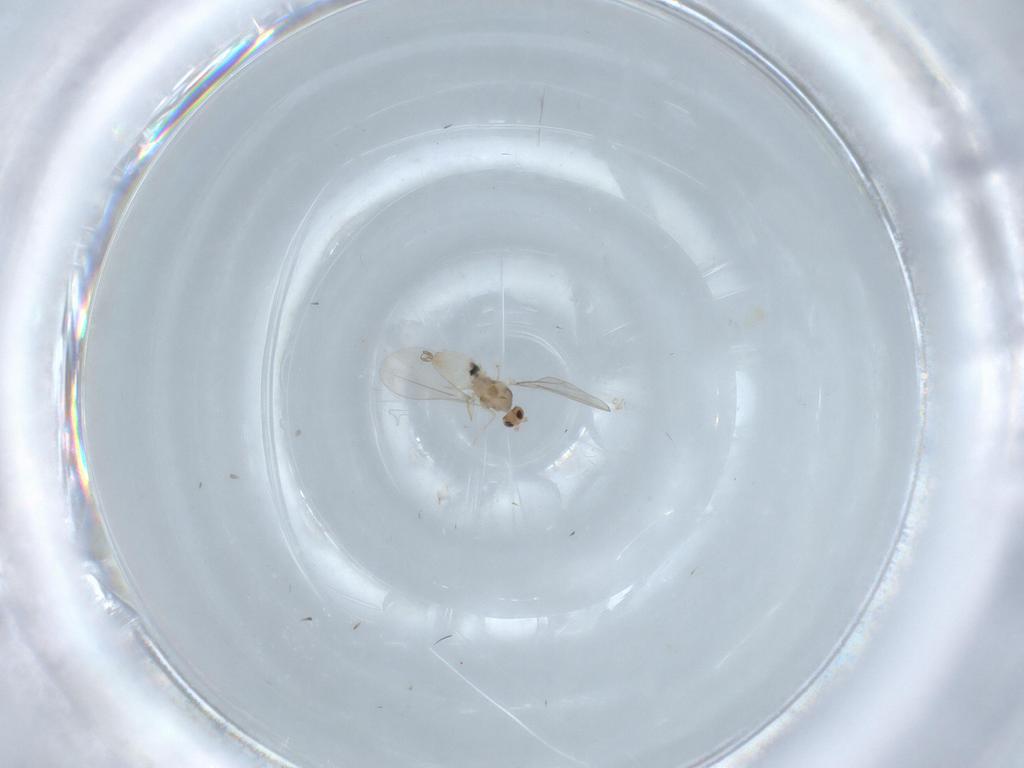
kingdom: Animalia
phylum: Arthropoda
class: Insecta
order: Diptera
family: Cecidomyiidae
